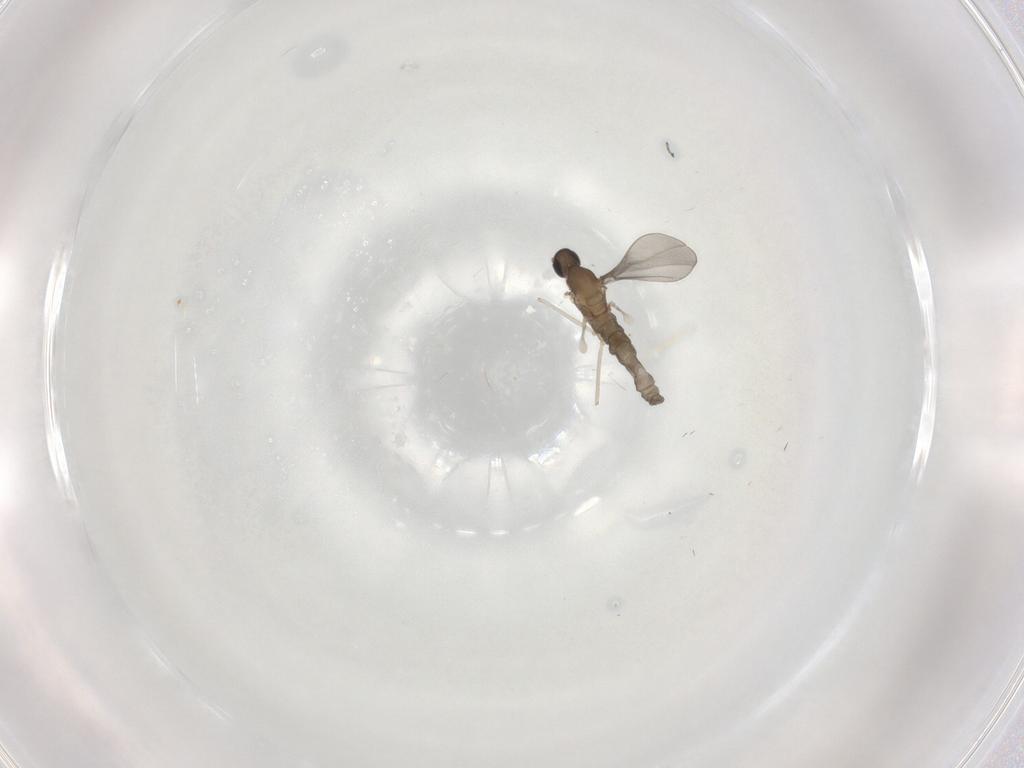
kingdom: Animalia
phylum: Arthropoda
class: Insecta
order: Diptera
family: Cecidomyiidae
